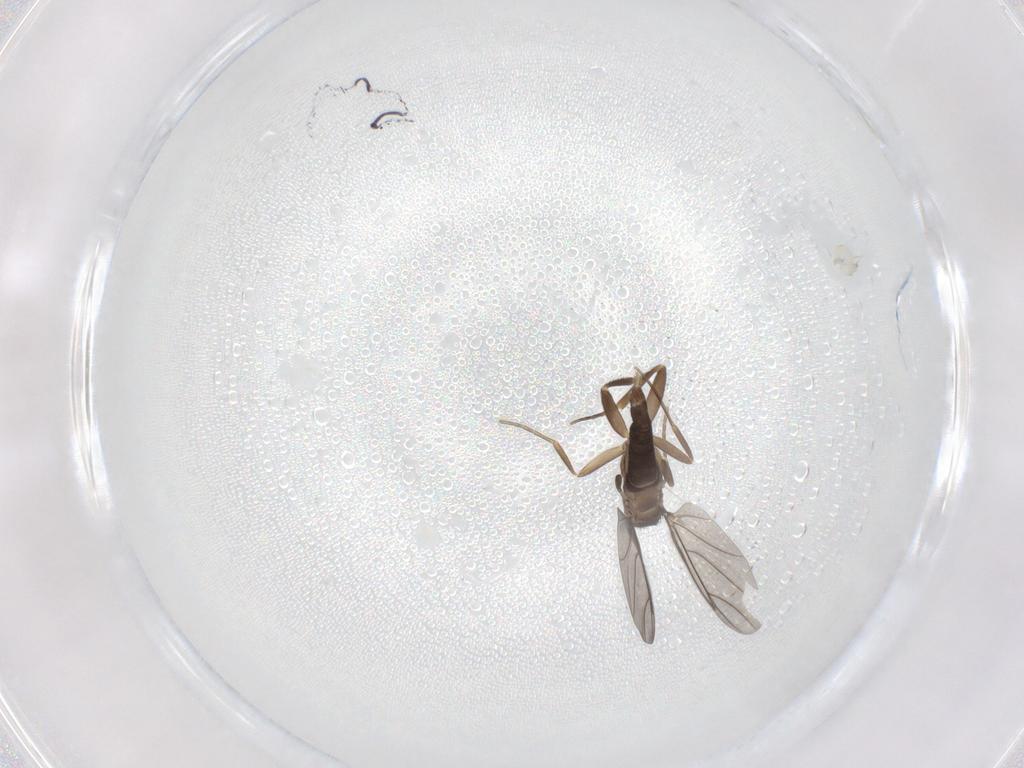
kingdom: Animalia
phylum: Arthropoda
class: Insecta
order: Diptera
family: Phoridae
